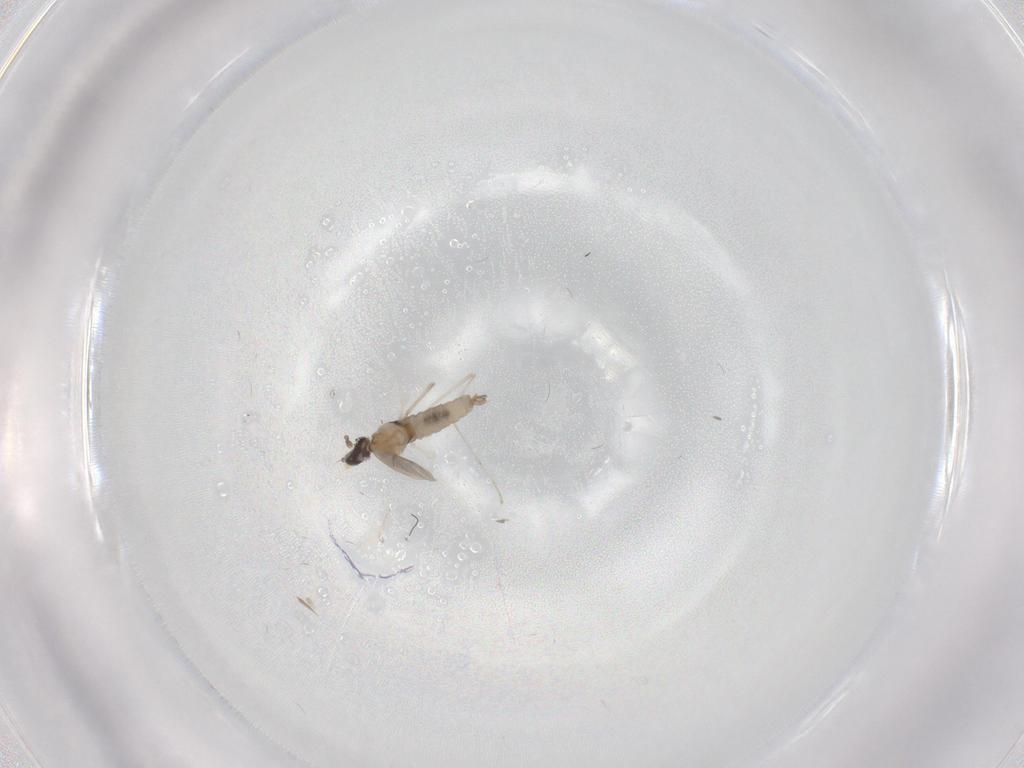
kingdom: Animalia
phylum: Arthropoda
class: Insecta
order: Diptera
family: Cecidomyiidae
